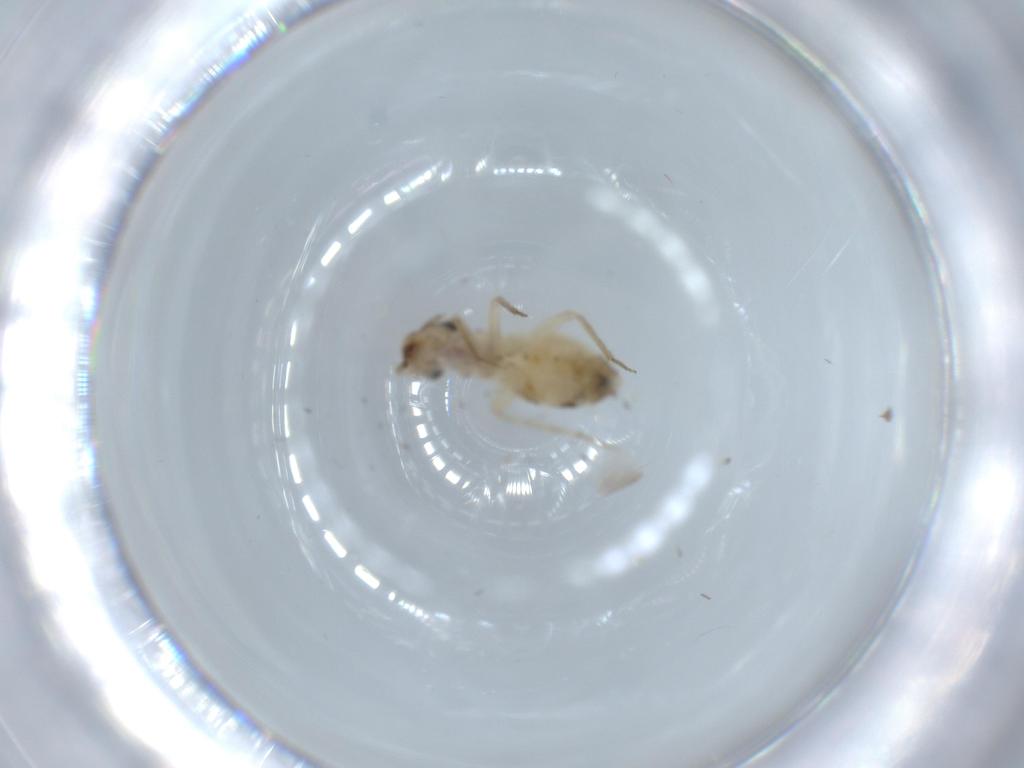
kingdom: Animalia
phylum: Arthropoda
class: Insecta
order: Psocodea
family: Lepidopsocidae
